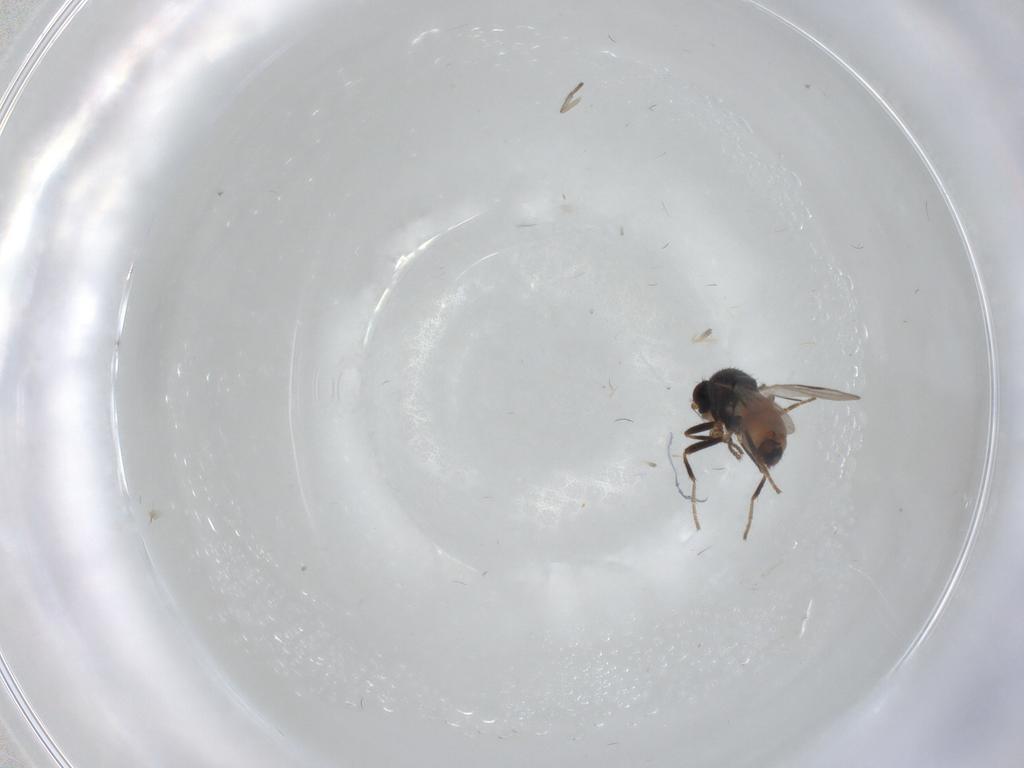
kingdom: Animalia
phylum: Arthropoda
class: Insecta
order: Diptera
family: Sphaeroceridae
